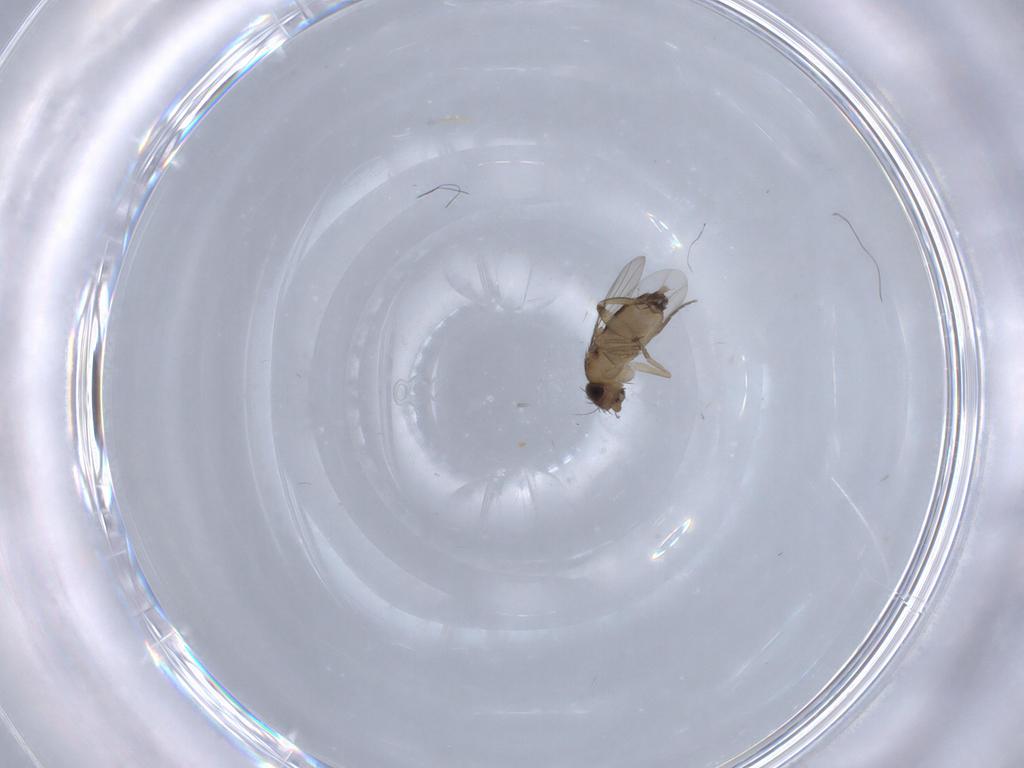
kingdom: Animalia
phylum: Arthropoda
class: Insecta
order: Diptera
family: Phoridae
